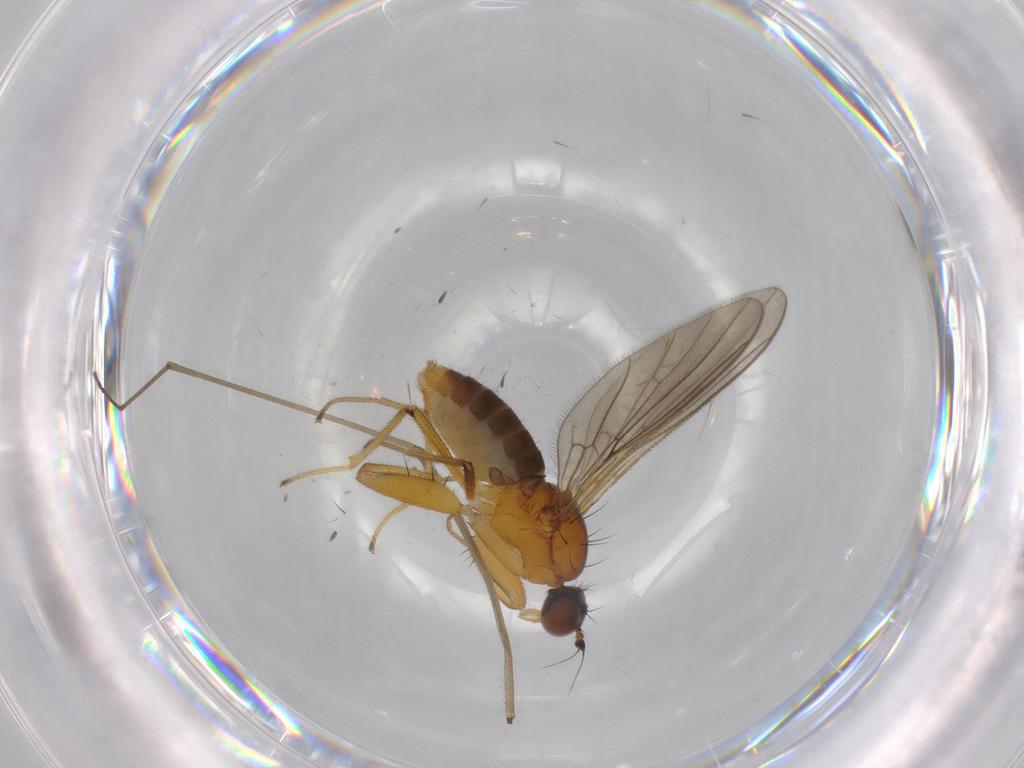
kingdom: Animalia
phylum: Arthropoda
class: Insecta
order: Diptera
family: Empididae
